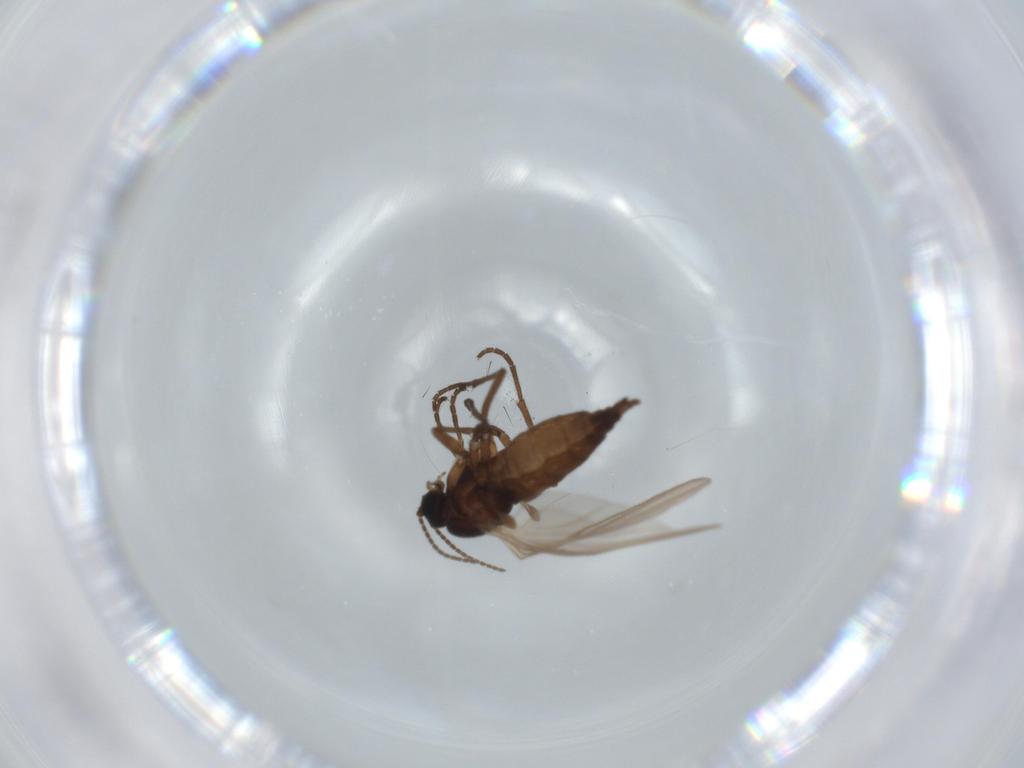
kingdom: Animalia
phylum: Arthropoda
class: Insecta
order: Diptera
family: Sciaridae
